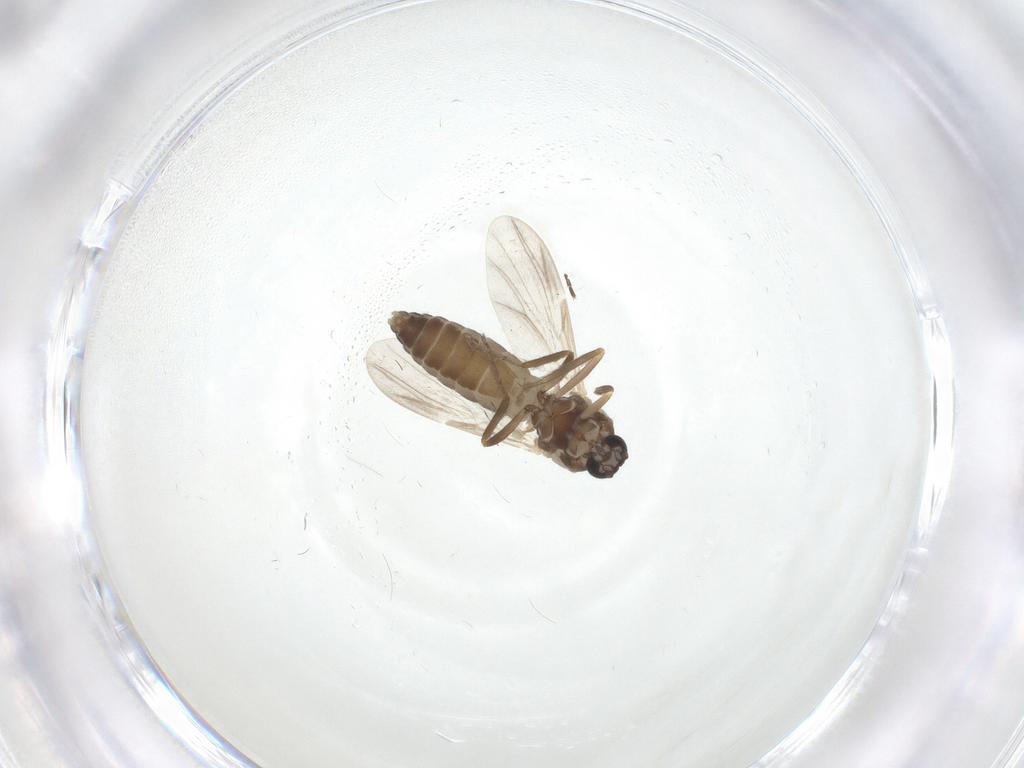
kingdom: Animalia
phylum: Arthropoda
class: Insecta
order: Diptera
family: Ceratopogonidae
